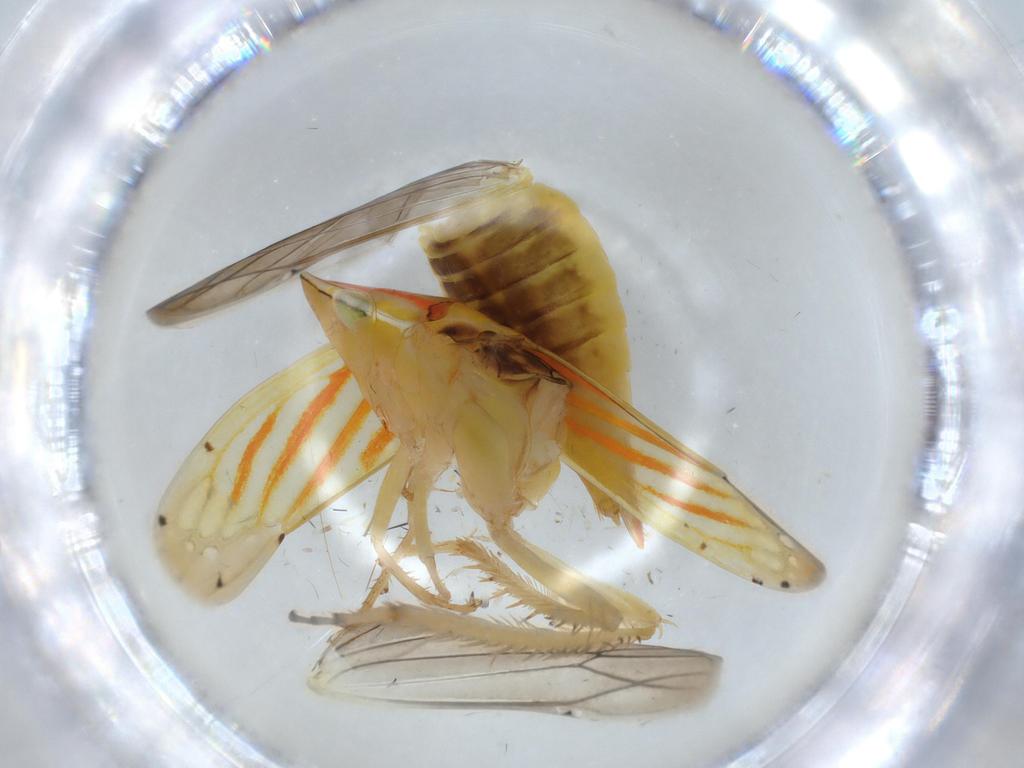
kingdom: Animalia
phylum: Arthropoda
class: Insecta
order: Hemiptera
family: Cicadellidae
